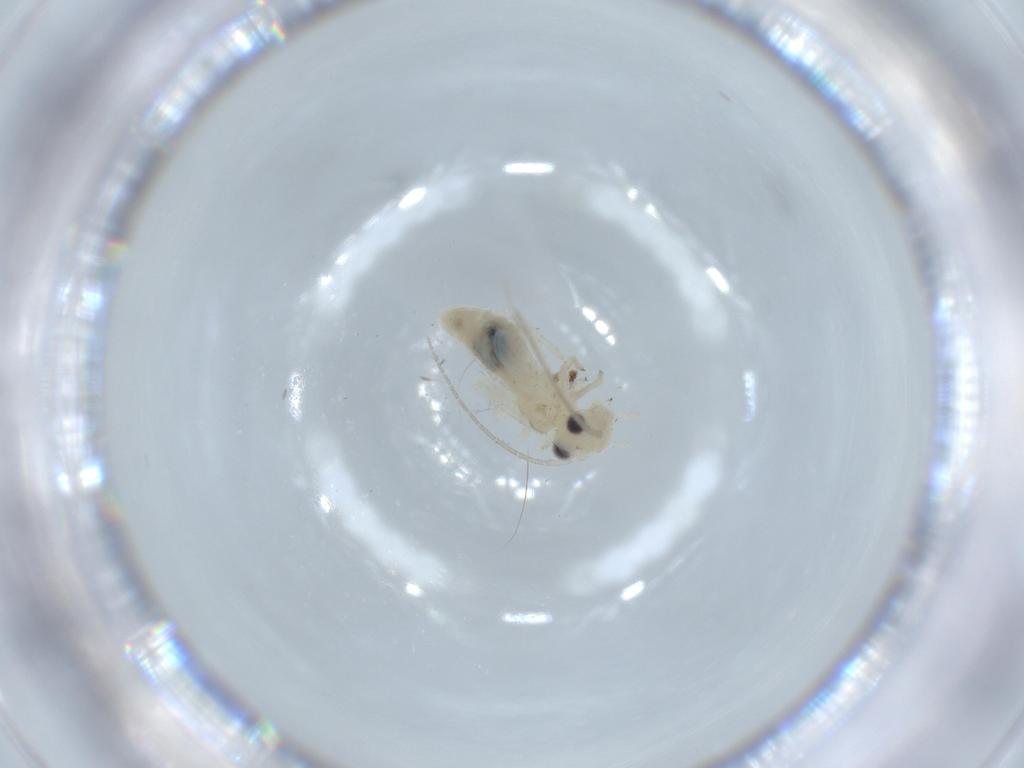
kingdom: Animalia
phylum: Arthropoda
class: Insecta
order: Psocodea
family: Caeciliusidae
